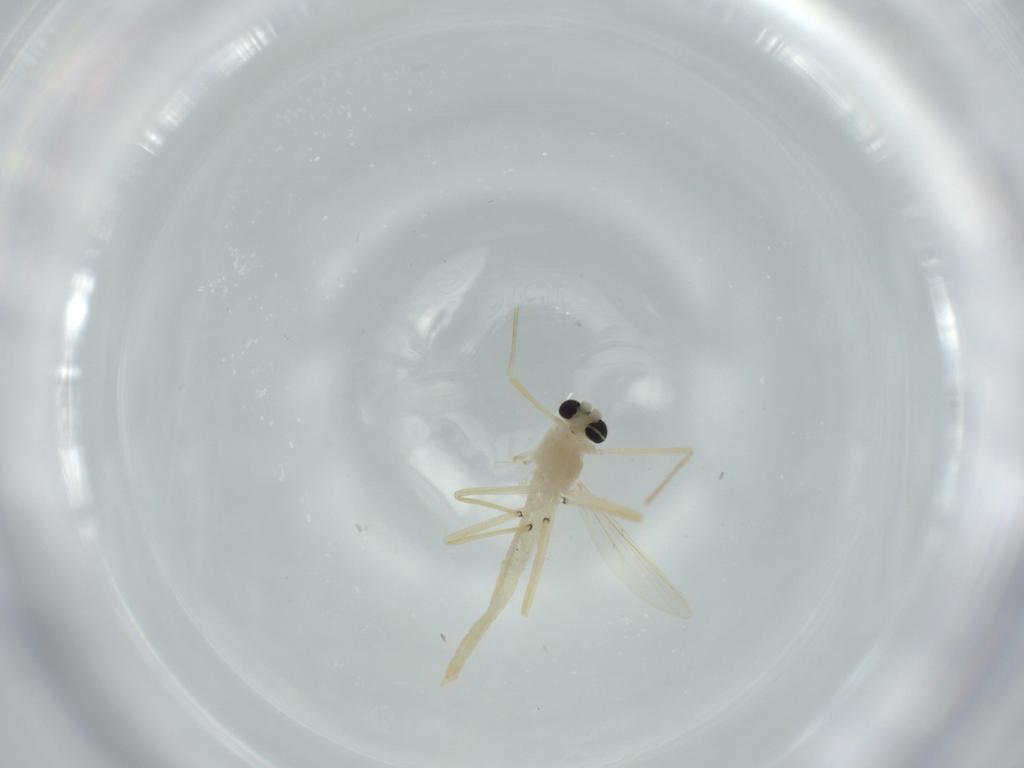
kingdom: Animalia
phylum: Arthropoda
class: Insecta
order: Diptera
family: Chironomidae
